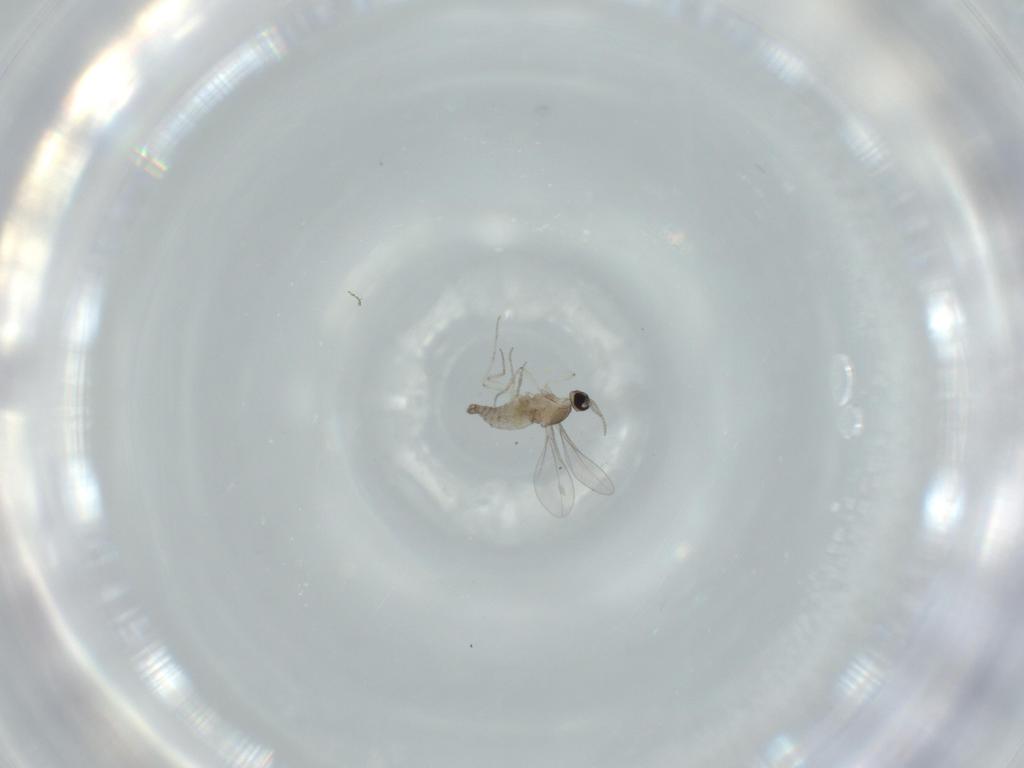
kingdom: Animalia
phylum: Arthropoda
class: Insecta
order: Diptera
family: Cecidomyiidae
